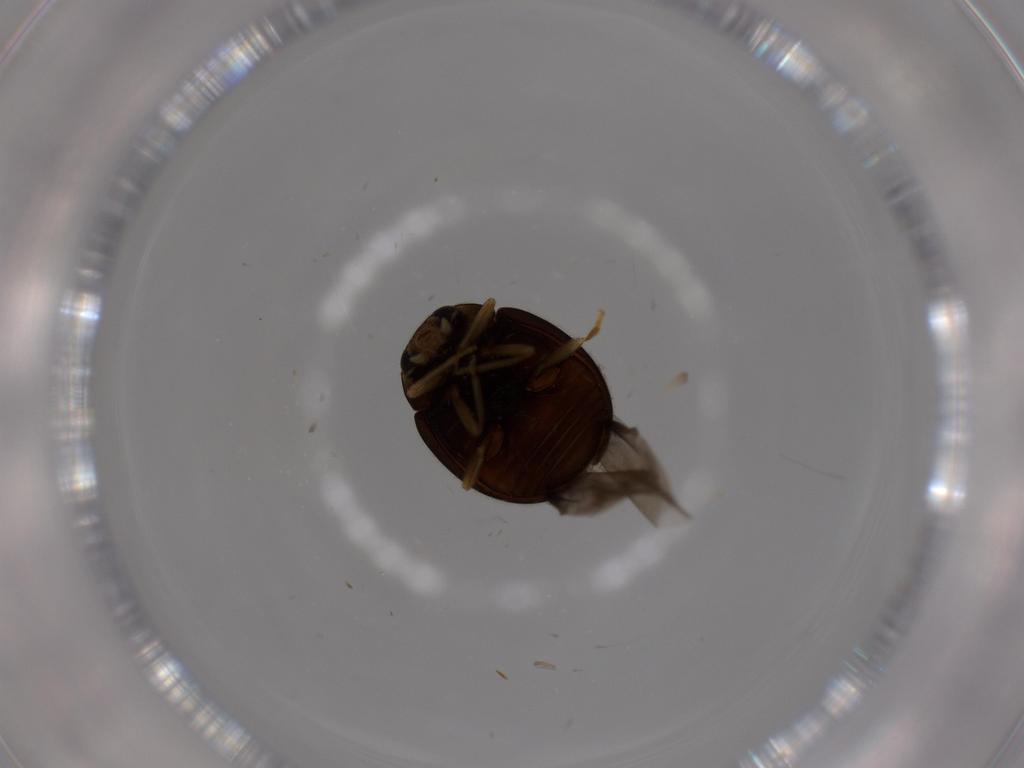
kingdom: Animalia
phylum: Arthropoda
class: Insecta
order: Coleoptera
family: Coccinellidae
